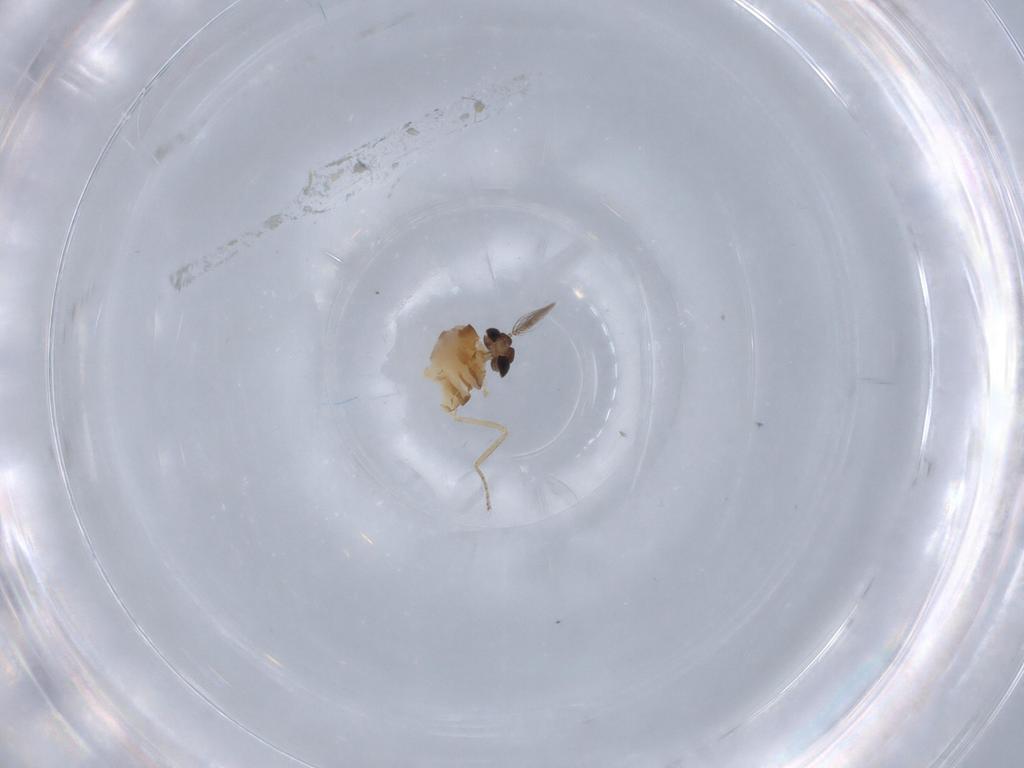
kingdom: Animalia
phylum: Arthropoda
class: Insecta
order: Diptera
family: Ceratopogonidae
